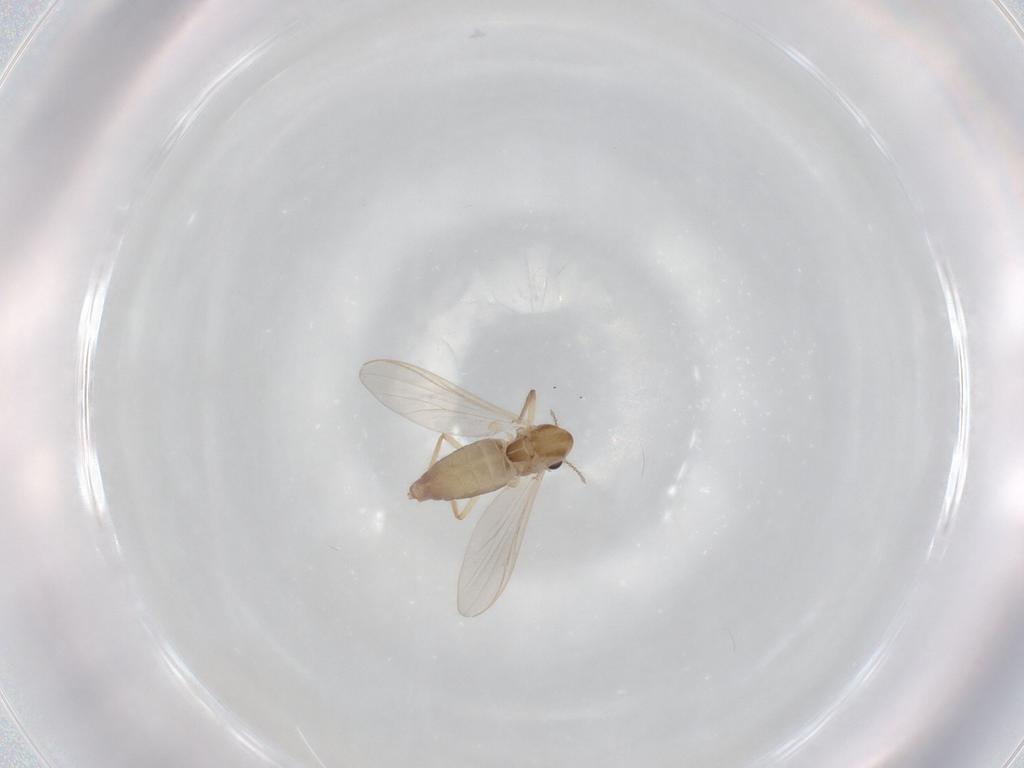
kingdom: Animalia
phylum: Arthropoda
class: Insecta
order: Diptera
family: Chironomidae
